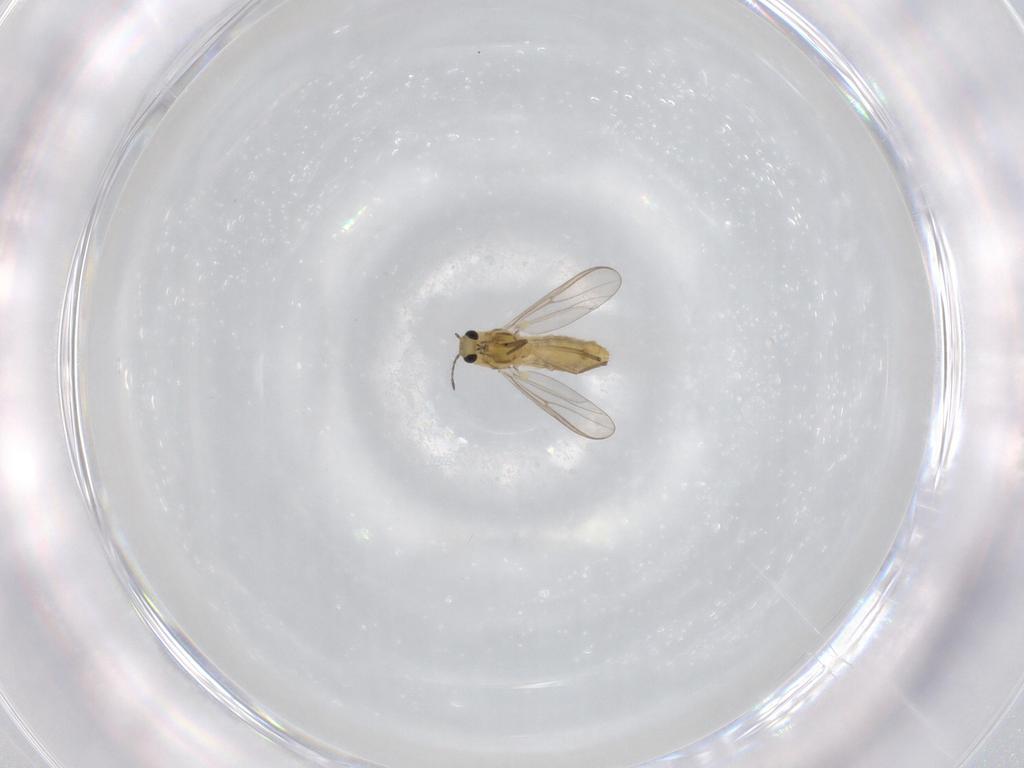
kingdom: Animalia
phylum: Arthropoda
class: Insecta
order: Diptera
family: Chironomidae
